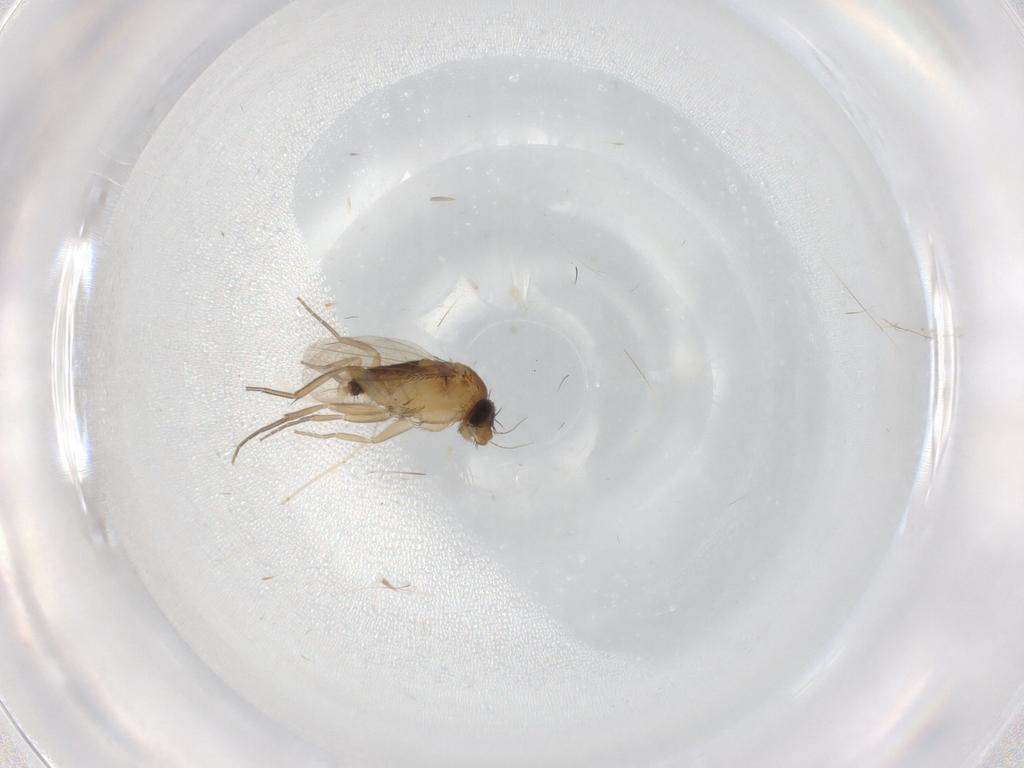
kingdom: Animalia
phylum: Arthropoda
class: Insecta
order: Diptera
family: Phoridae
